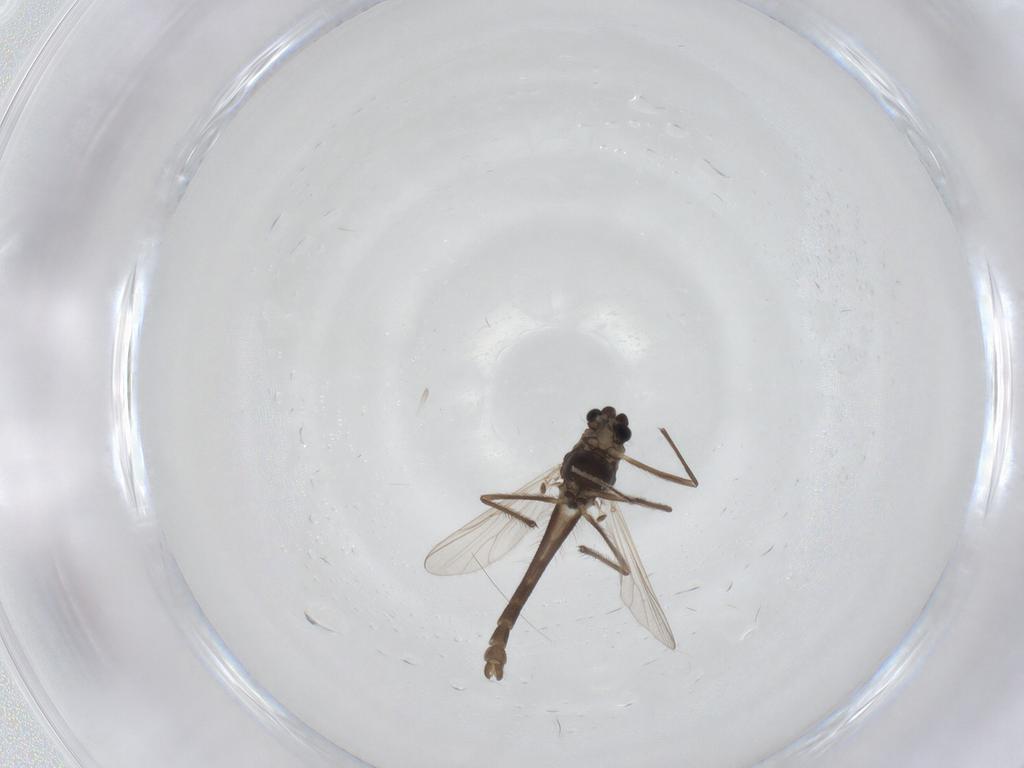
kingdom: Animalia
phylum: Arthropoda
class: Insecta
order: Diptera
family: Chironomidae
